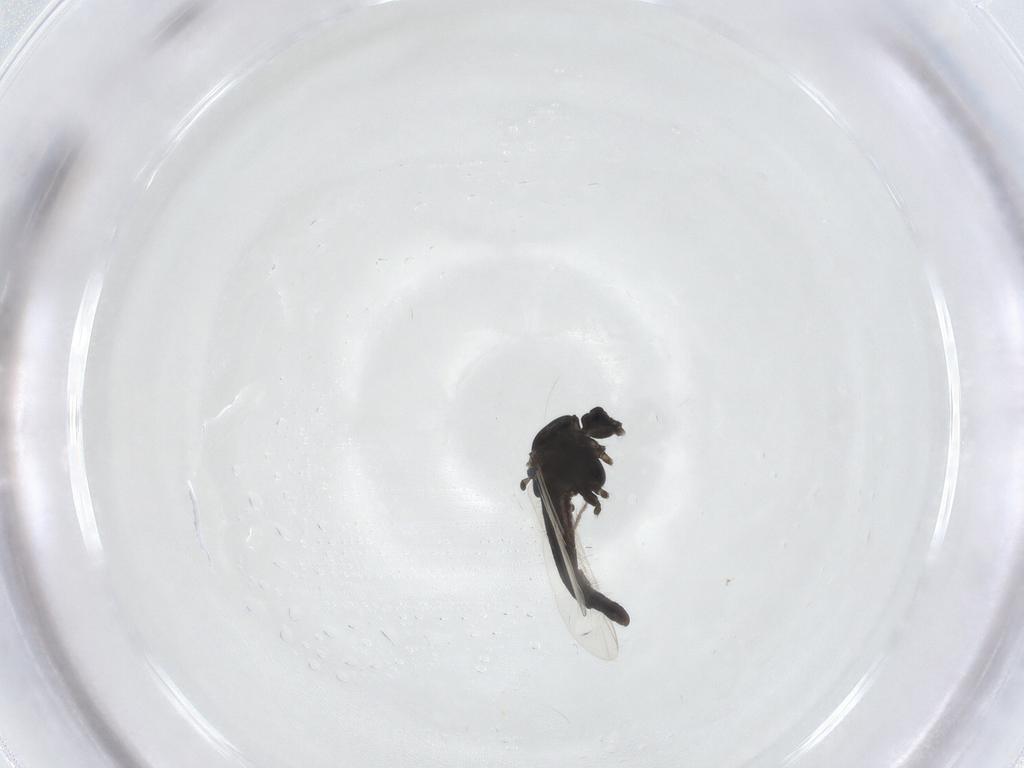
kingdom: Animalia
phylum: Arthropoda
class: Insecta
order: Diptera
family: Chironomidae
